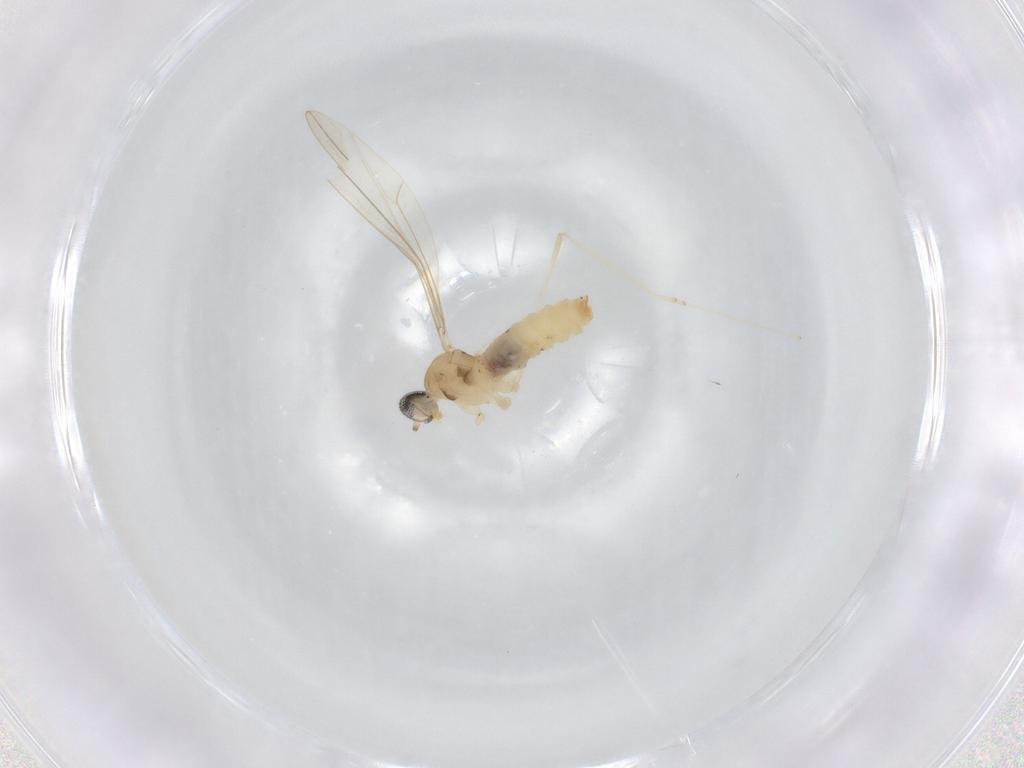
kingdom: Animalia
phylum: Arthropoda
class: Insecta
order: Diptera
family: Cecidomyiidae
